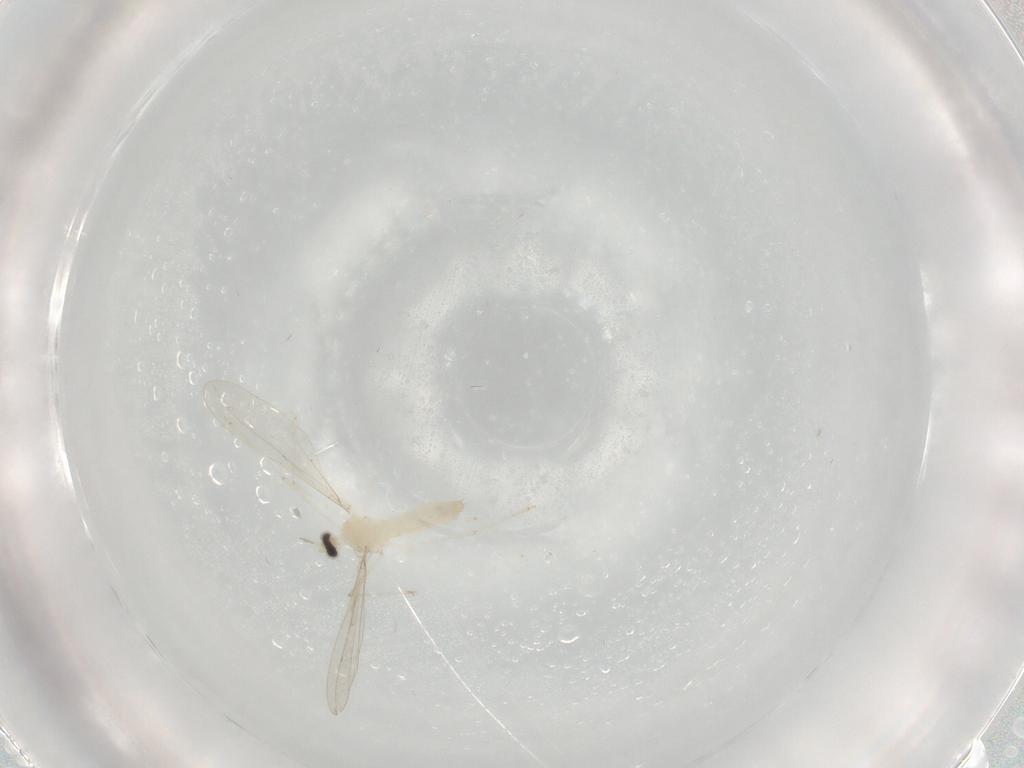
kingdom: Animalia
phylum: Arthropoda
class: Insecta
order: Diptera
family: Cecidomyiidae
